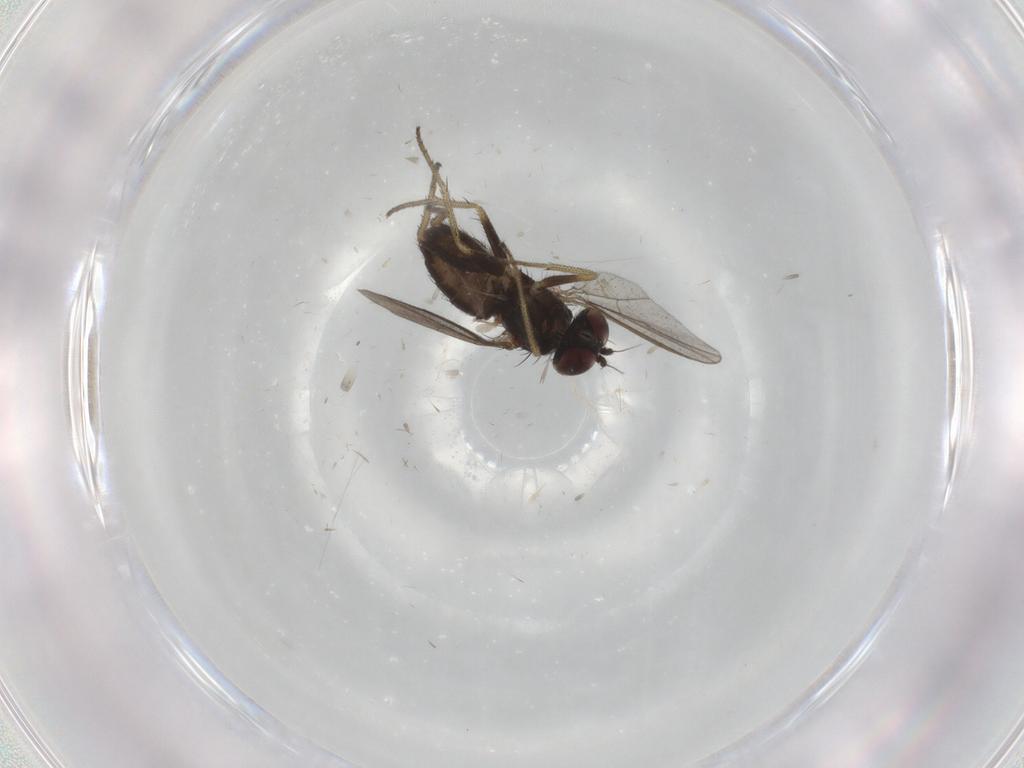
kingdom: Animalia
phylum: Arthropoda
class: Insecta
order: Diptera
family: Chironomidae
